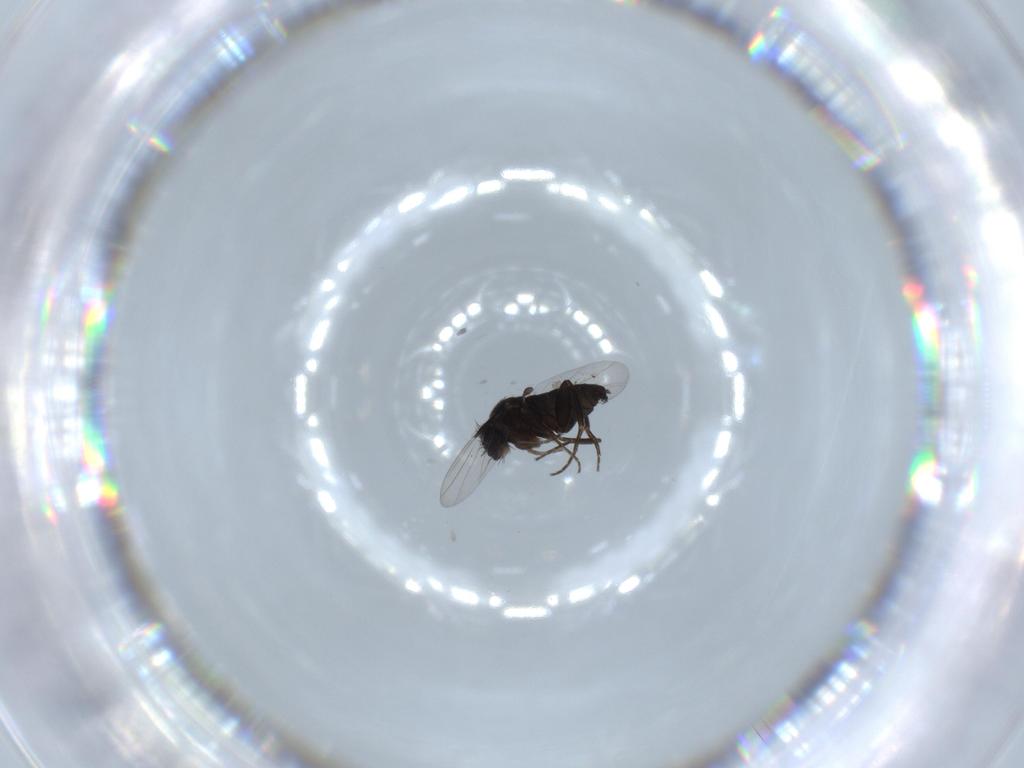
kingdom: Animalia
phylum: Arthropoda
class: Insecta
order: Diptera
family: Phoridae
